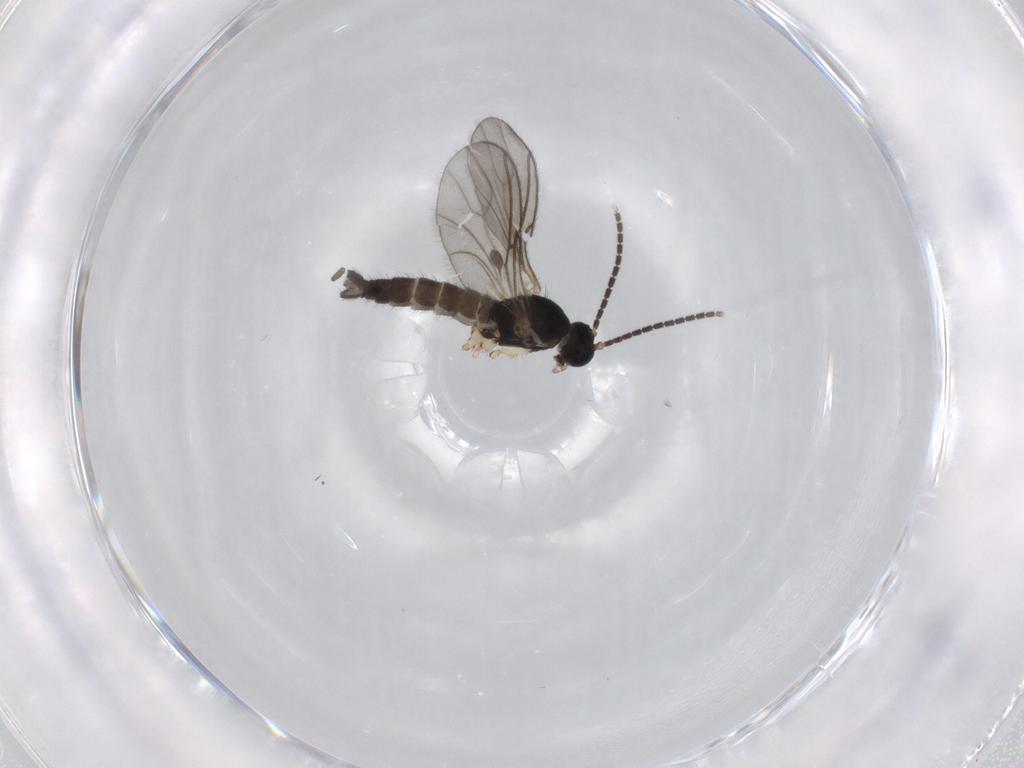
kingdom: Animalia
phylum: Arthropoda
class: Insecta
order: Diptera
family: Sciaridae
